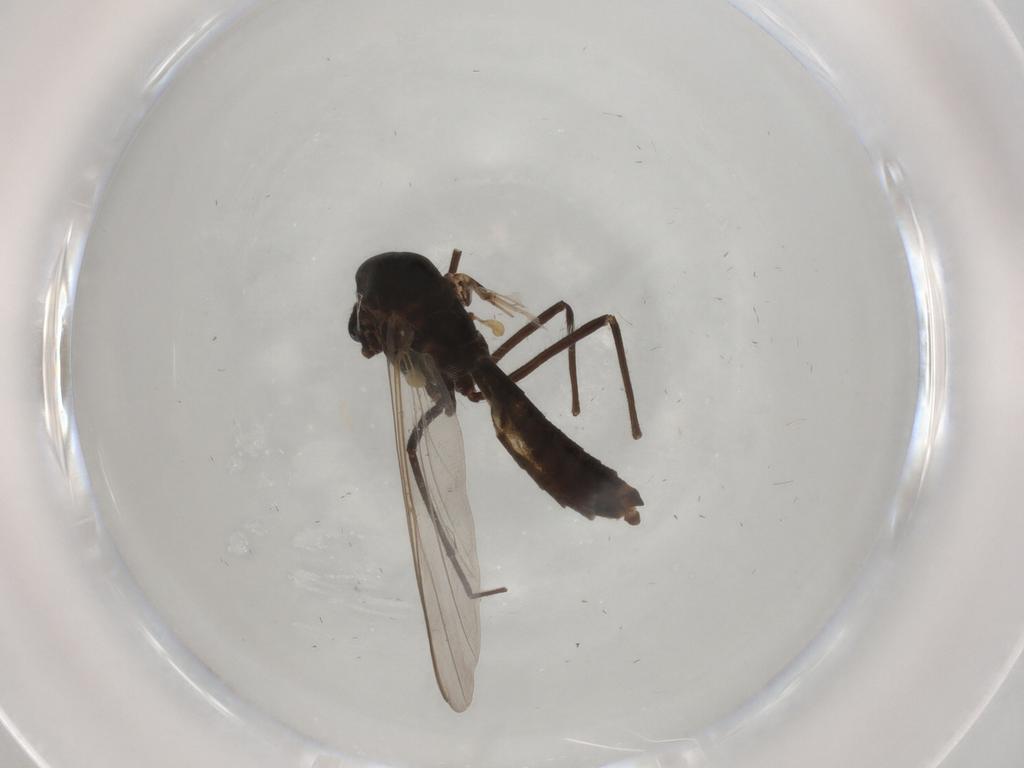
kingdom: Animalia
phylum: Arthropoda
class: Insecta
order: Diptera
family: Chironomidae
